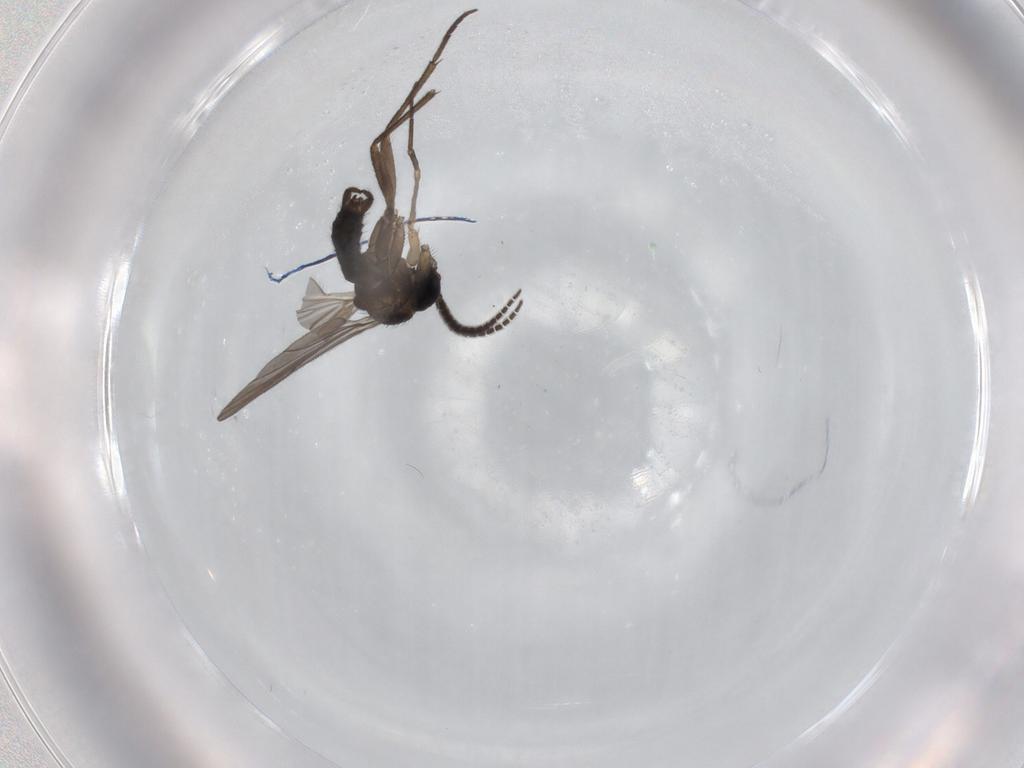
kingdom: Animalia
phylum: Arthropoda
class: Insecta
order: Diptera
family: Sciaridae
